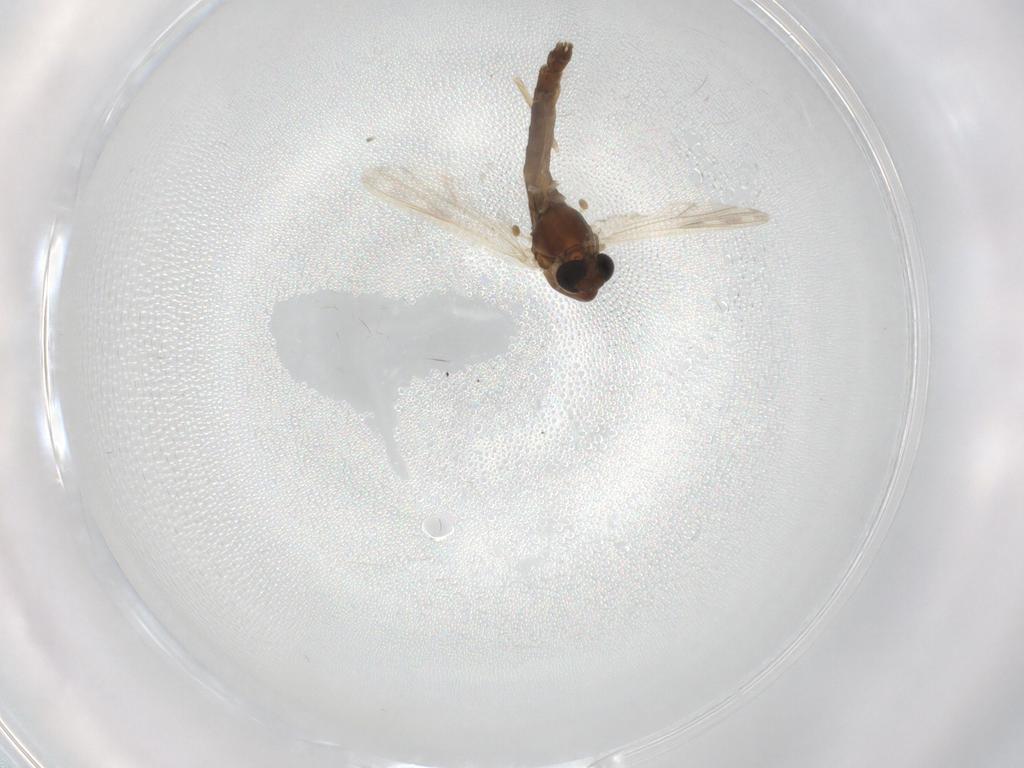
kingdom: Animalia
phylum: Arthropoda
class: Insecta
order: Diptera
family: Chironomidae
